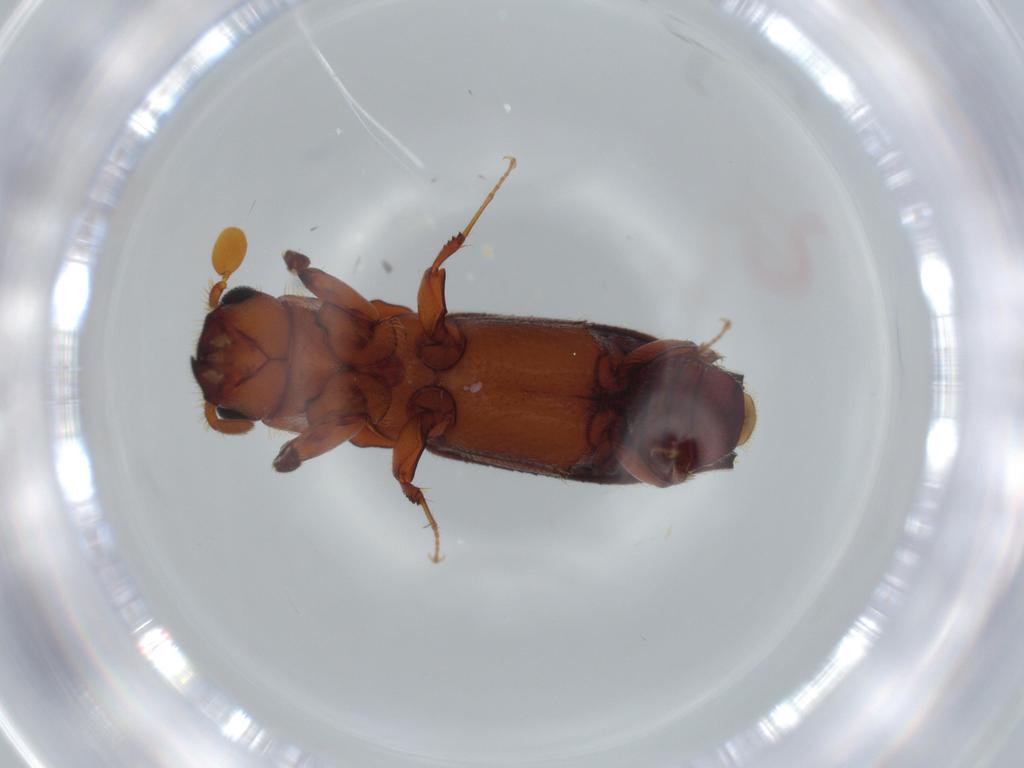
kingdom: Animalia
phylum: Arthropoda
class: Insecta
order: Coleoptera
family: Curculionidae
